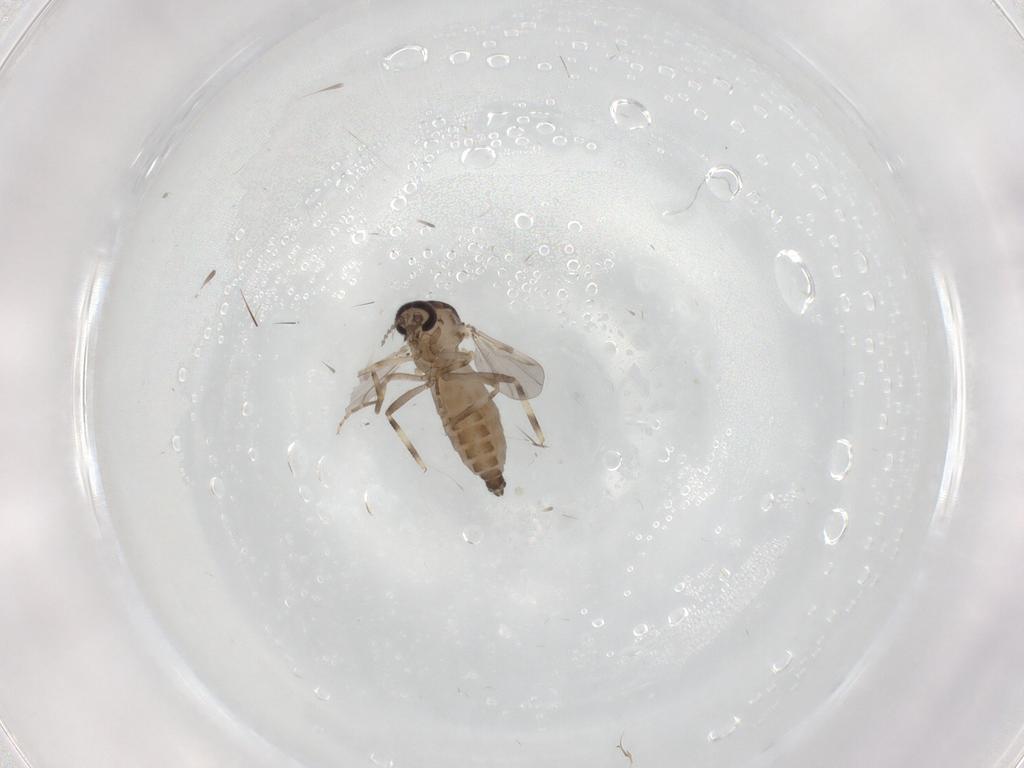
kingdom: Animalia
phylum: Arthropoda
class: Insecta
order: Diptera
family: Ceratopogonidae
